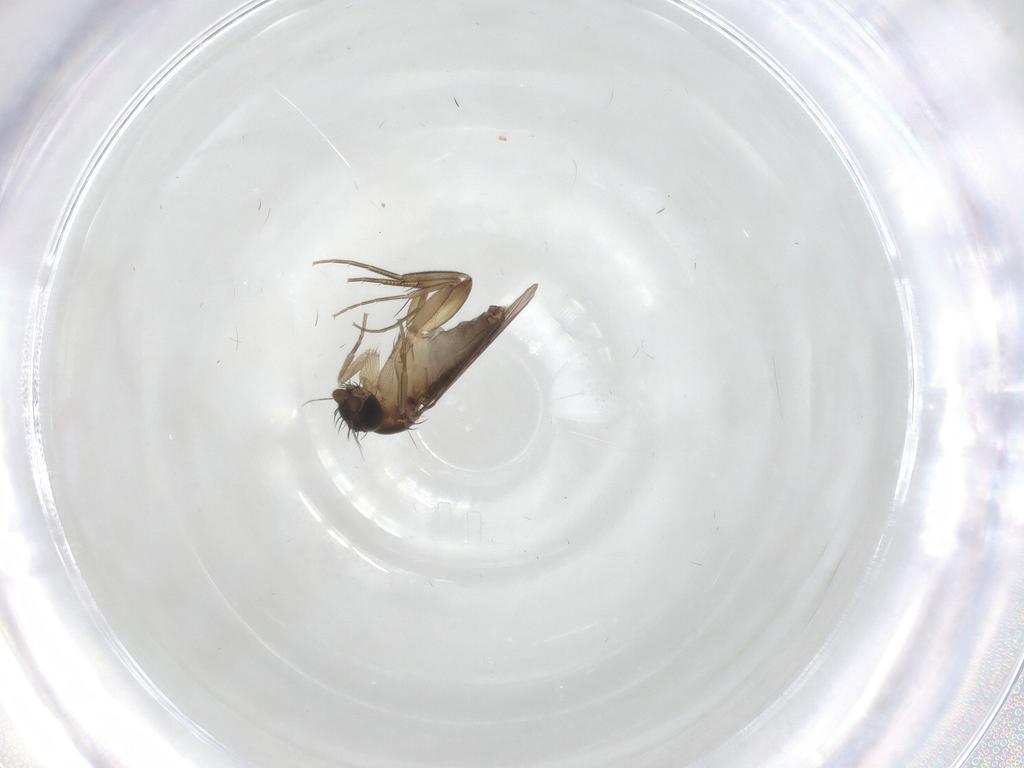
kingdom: Animalia
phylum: Arthropoda
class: Insecta
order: Diptera
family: Phoridae
